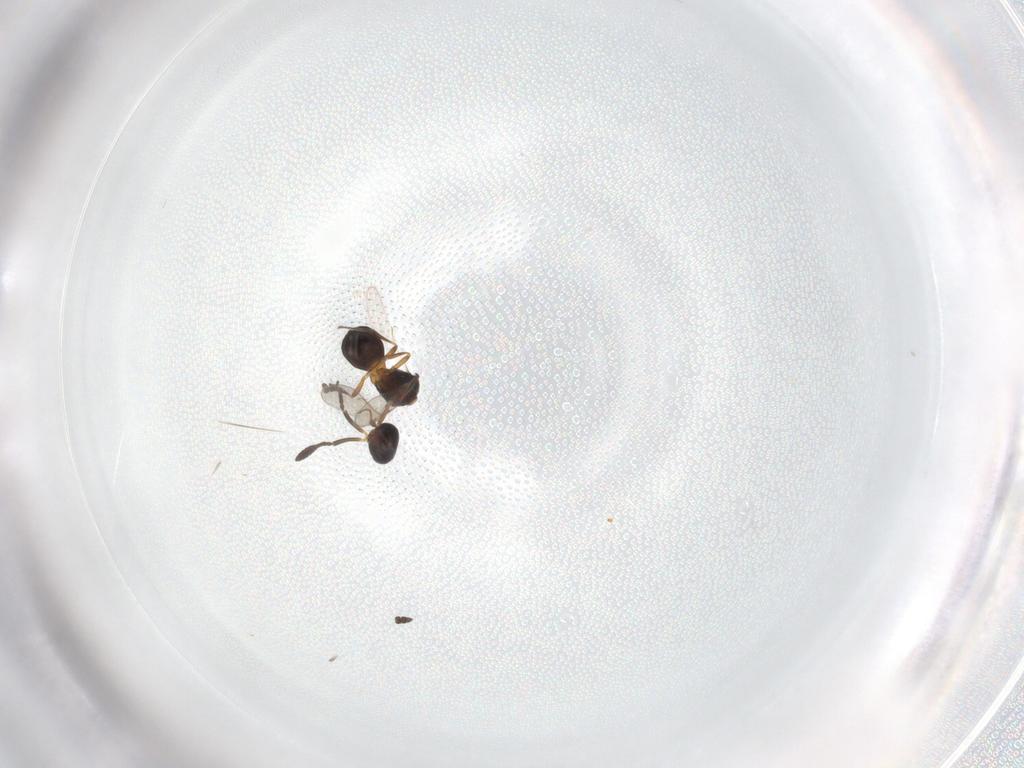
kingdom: Animalia
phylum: Arthropoda
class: Insecta
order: Hymenoptera
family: Scelionidae
